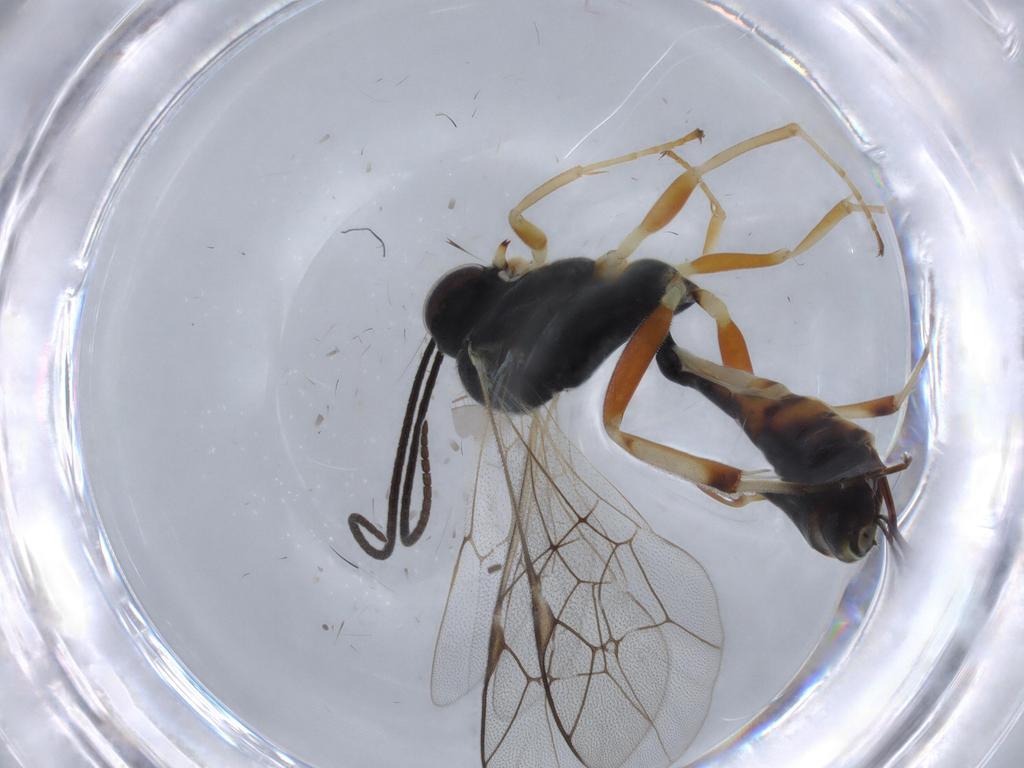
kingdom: Animalia
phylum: Arthropoda
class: Insecta
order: Hymenoptera
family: Ichneumonidae
